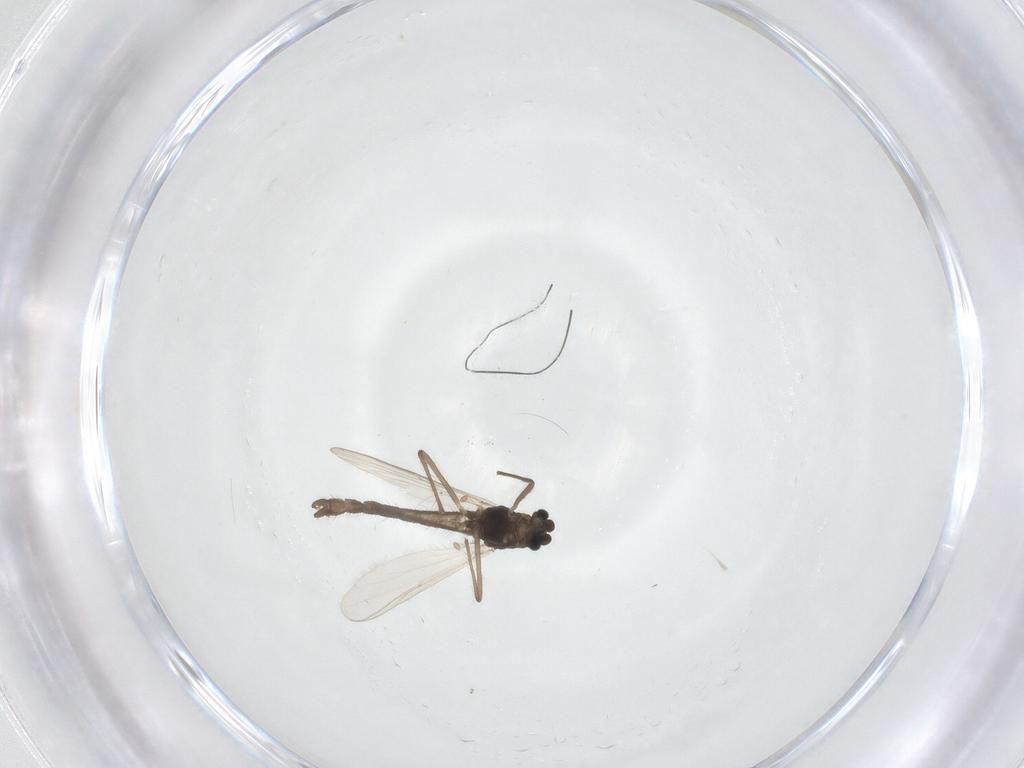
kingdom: Animalia
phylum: Arthropoda
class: Insecta
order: Diptera
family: Chironomidae
